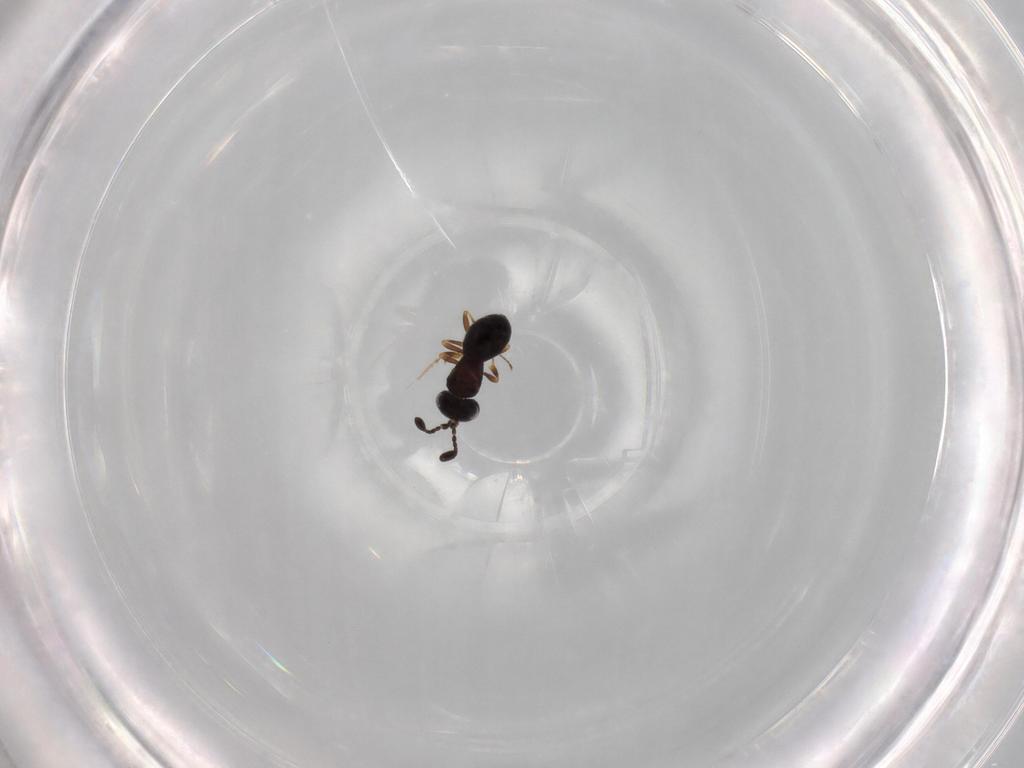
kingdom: Animalia
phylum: Arthropoda
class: Insecta
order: Hymenoptera
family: Scelionidae
